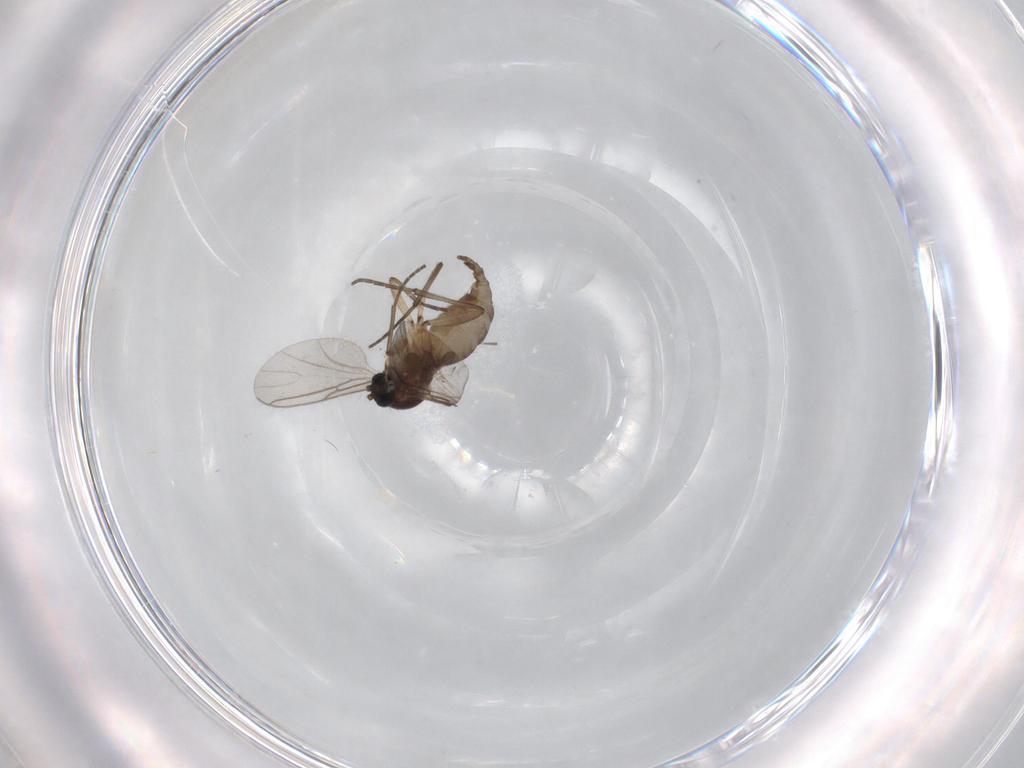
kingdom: Animalia
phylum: Arthropoda
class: Insecta
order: Diptera
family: Sciaridae
